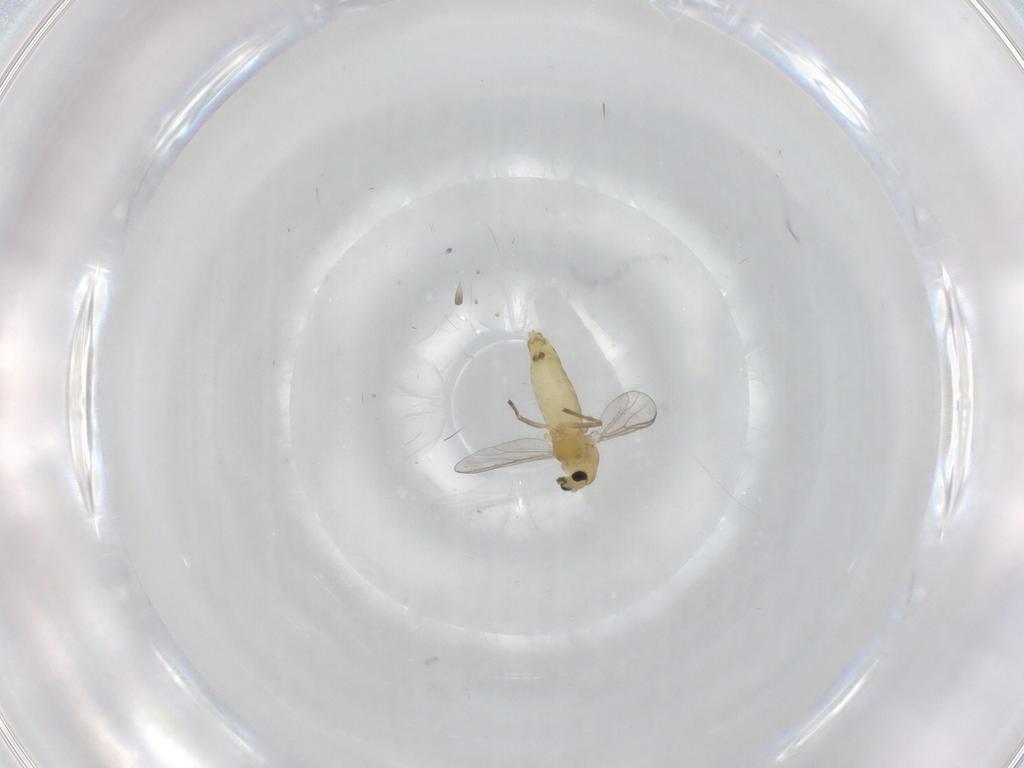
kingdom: Animalia
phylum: Arthropoda
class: Insecta
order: Diptera
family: Chironomidae
